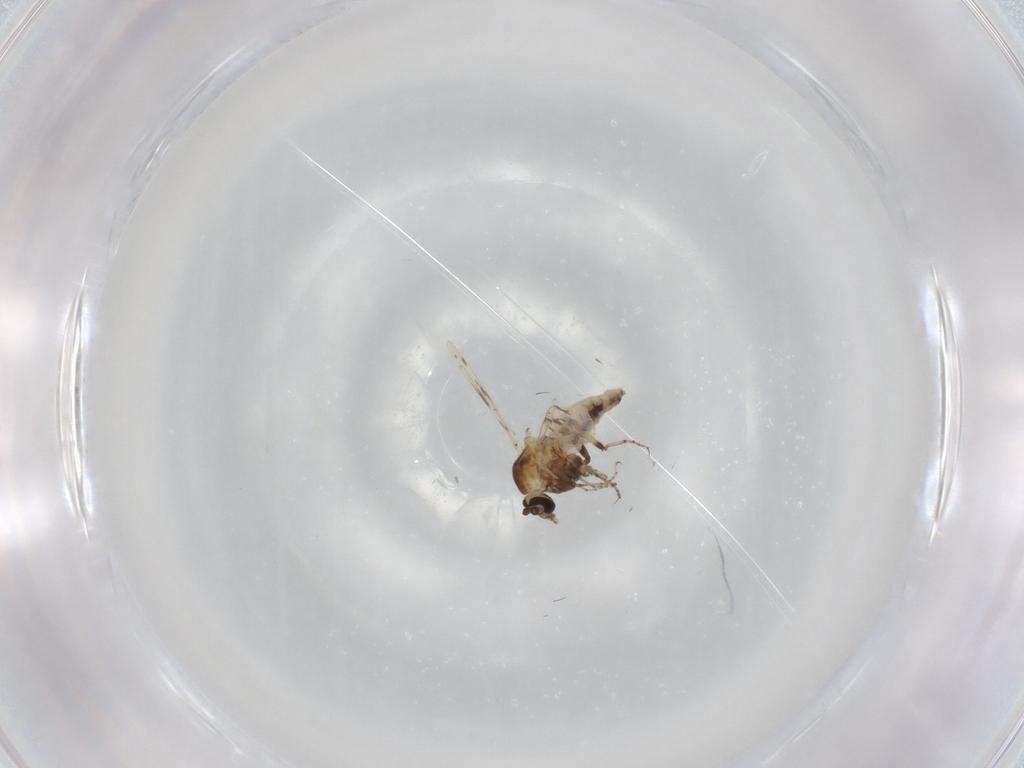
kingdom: Animalia
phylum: Arthropoda
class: Insecta
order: Diptera
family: Ceratopogonidae
